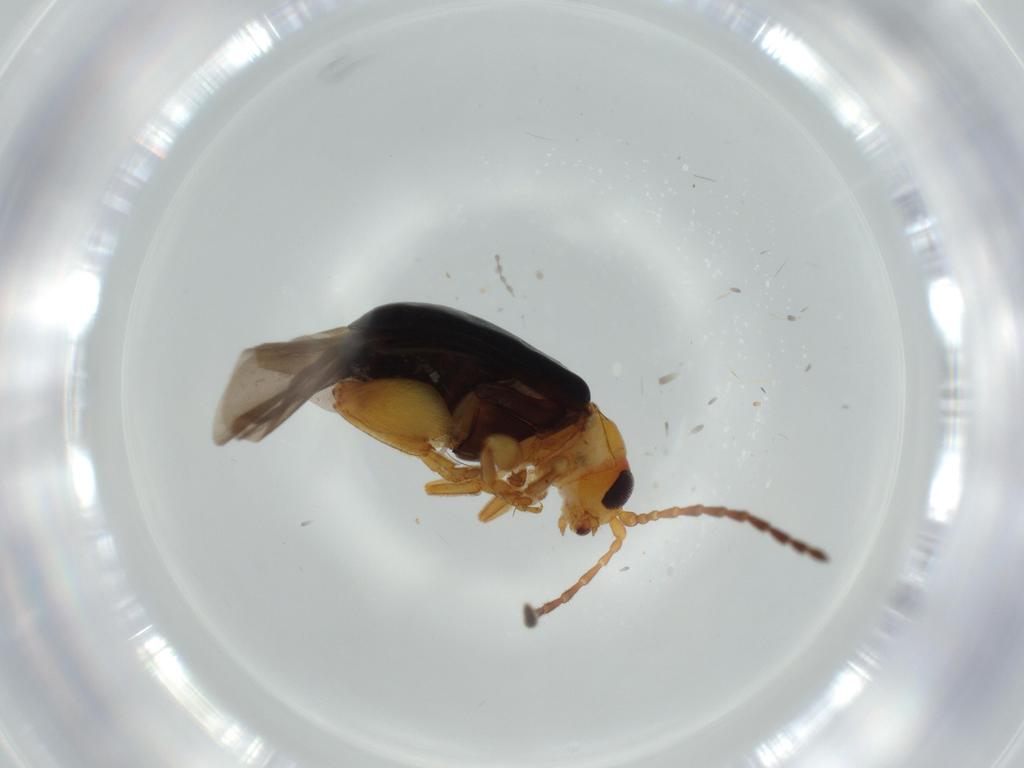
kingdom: Animalia
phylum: Arthropoda
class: Insecta
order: Coleoptera
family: Chrysomelidae
